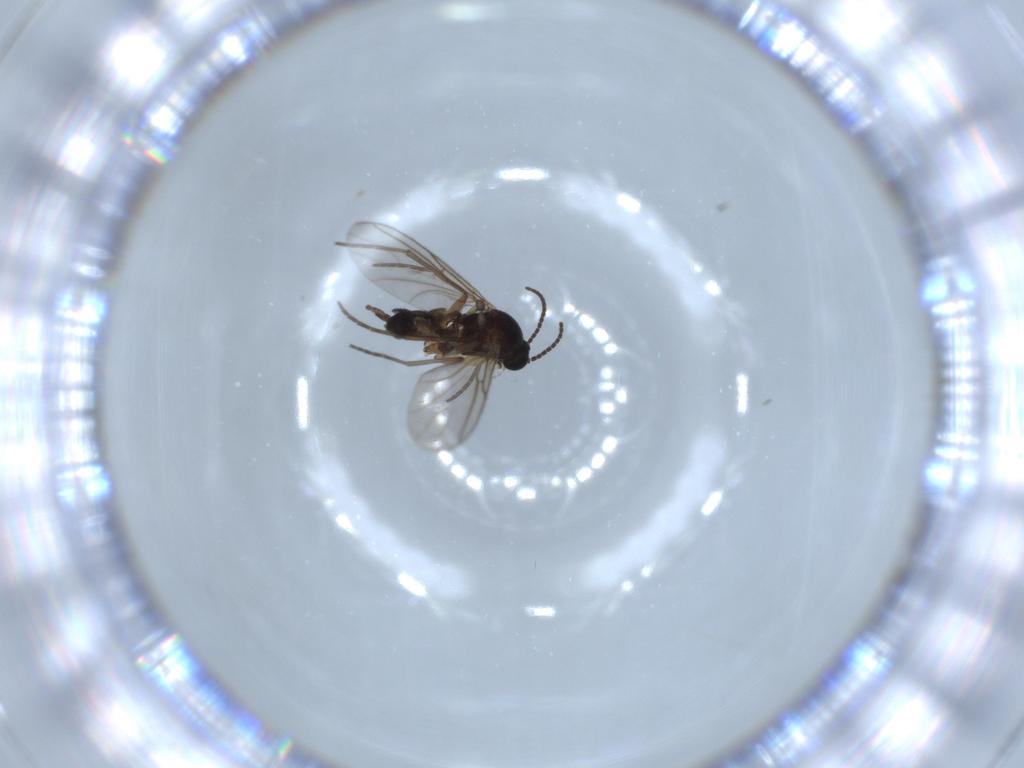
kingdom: Animalia
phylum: Arthropoda
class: Insecta
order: Diptera
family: Sciaridae
